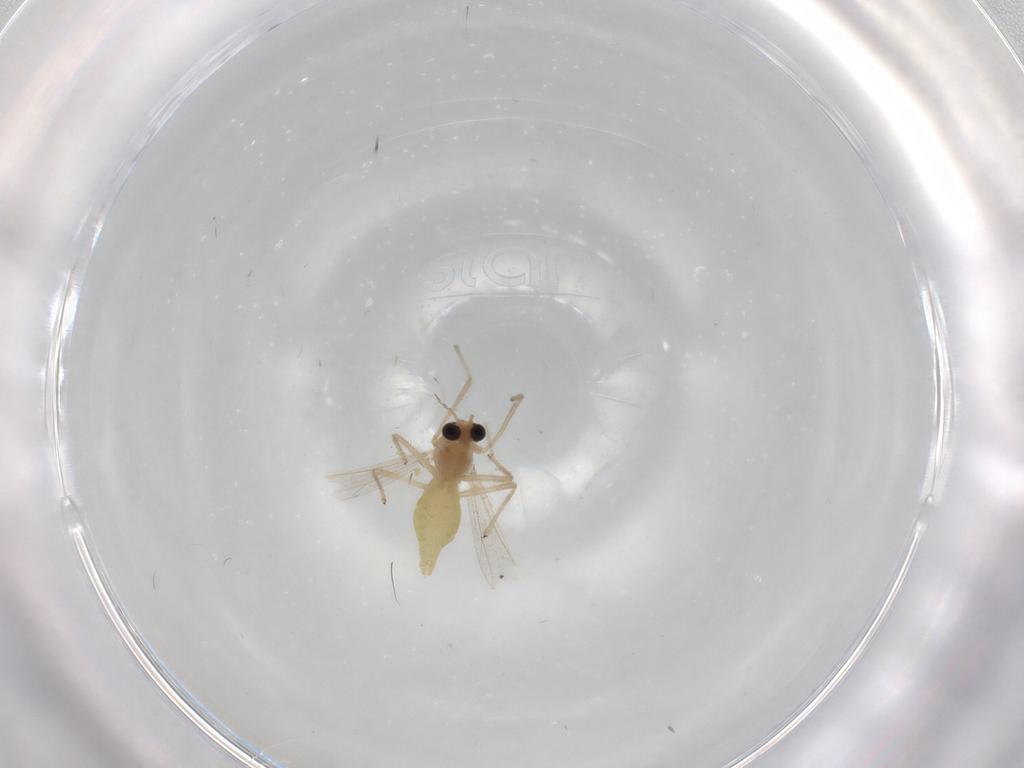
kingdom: Animalia
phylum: Arthropoda
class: Insecta
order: Diptera
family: Chironomidae
